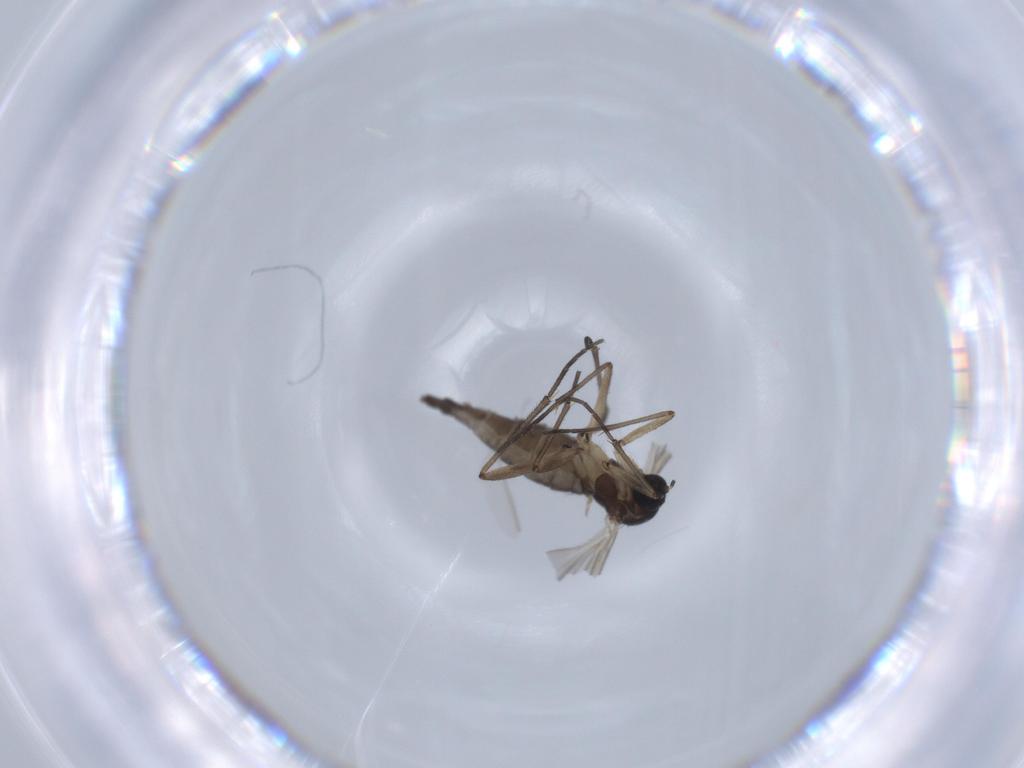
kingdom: Animalia
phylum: Arthropoda
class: Insecta
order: Diptera
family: Sciaridae
